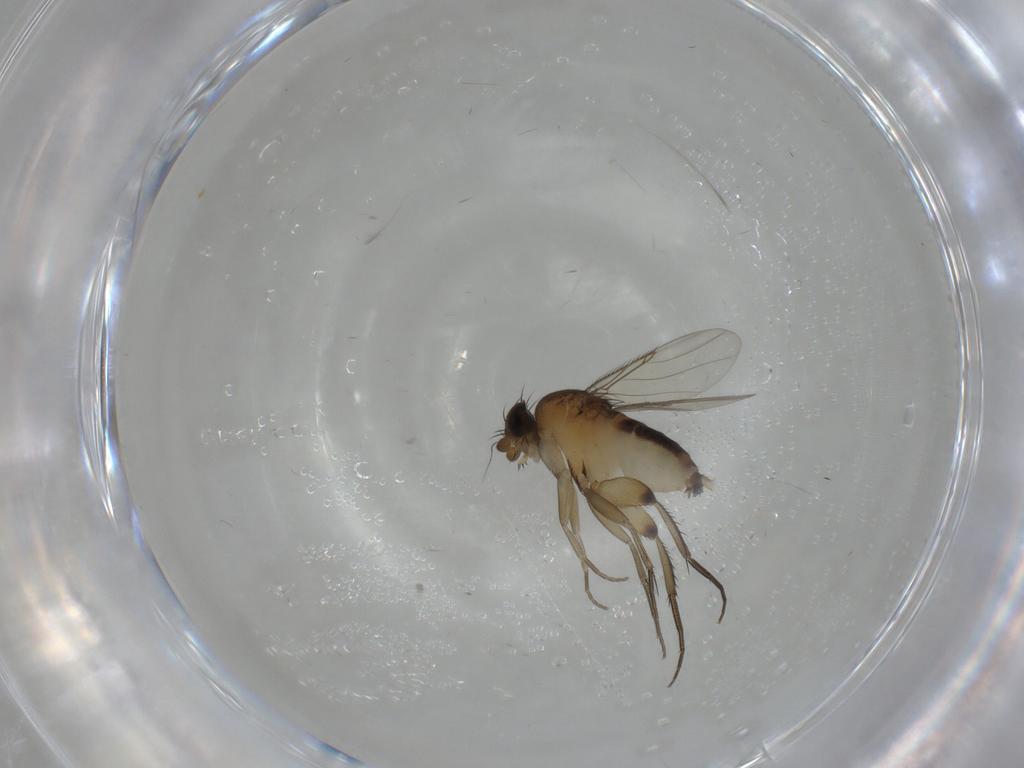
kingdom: Animalia
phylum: Arthropoda
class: Insecta
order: Diptera
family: Phoridae
